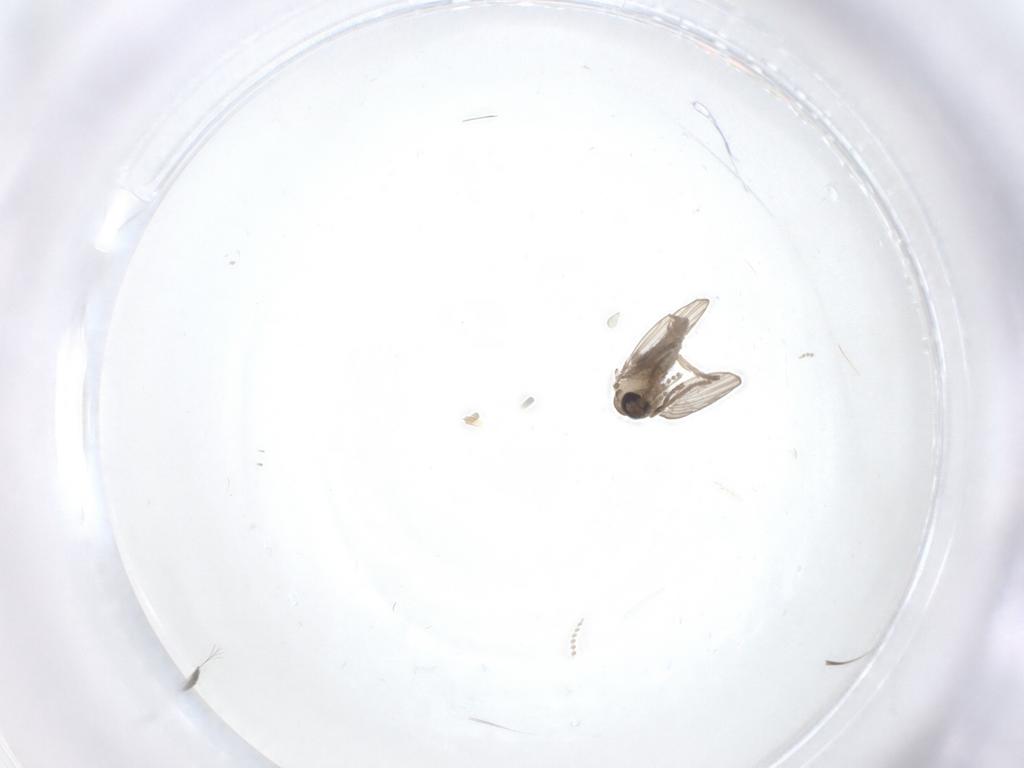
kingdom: Animalia
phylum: Arthropoda
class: Insecta
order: Diptera
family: Psychodidae
